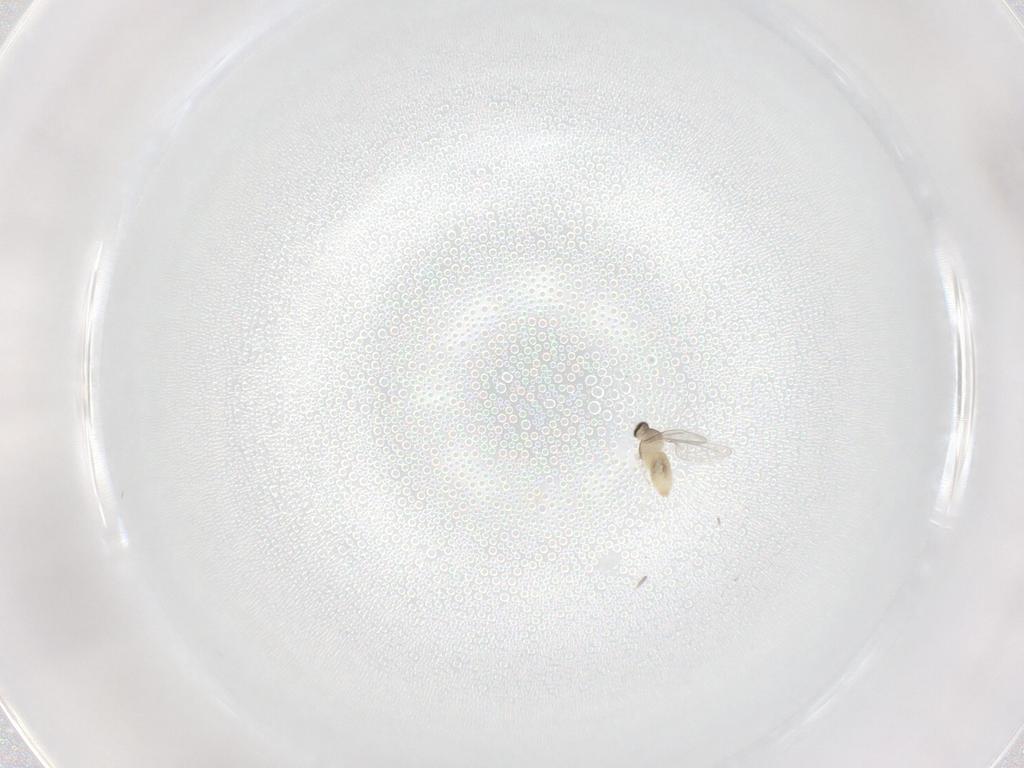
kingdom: Animalia
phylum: Arthropoda
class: Insecta
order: Diptera
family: Cecidomyiidae
